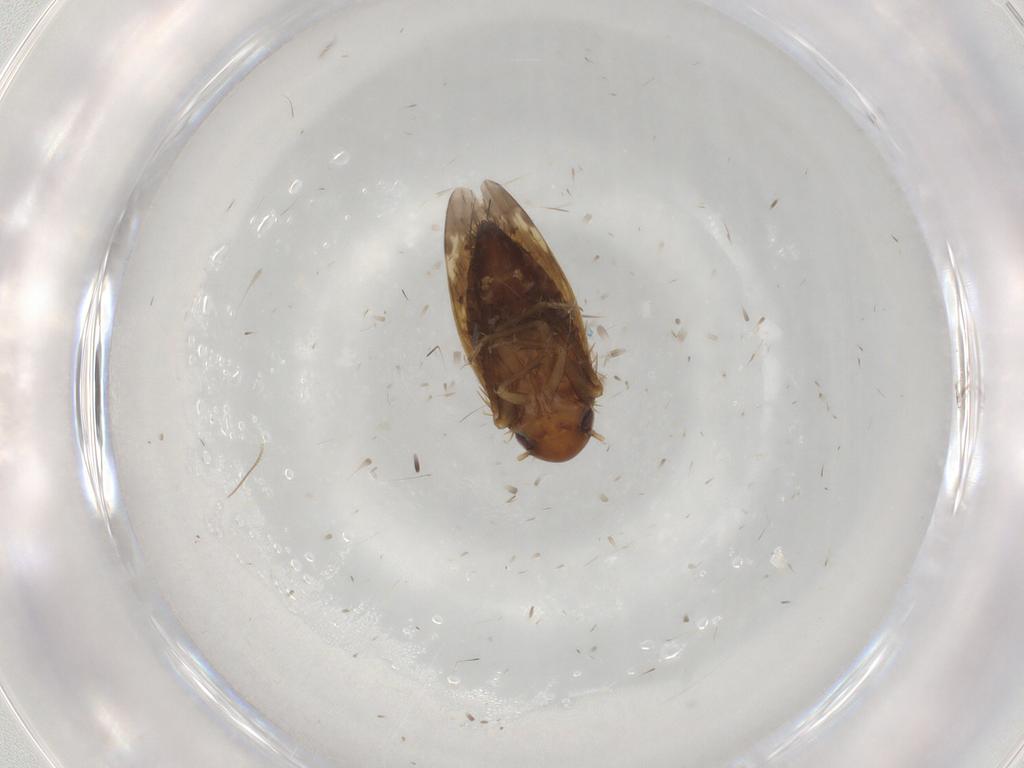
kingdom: Animalia
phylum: Arthropoda
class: Insecta
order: Hemiptera
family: Cicadellidae
